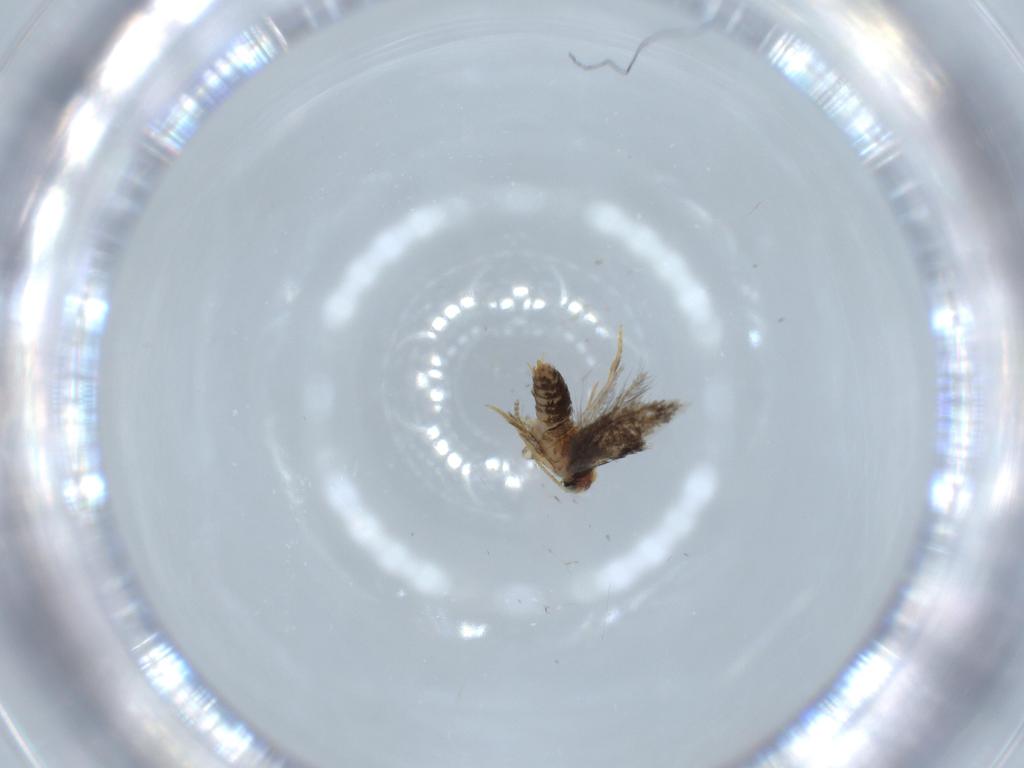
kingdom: Animalia
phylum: Arthropoda
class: Insecta
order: Lepidoptera
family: Nepticulidae
